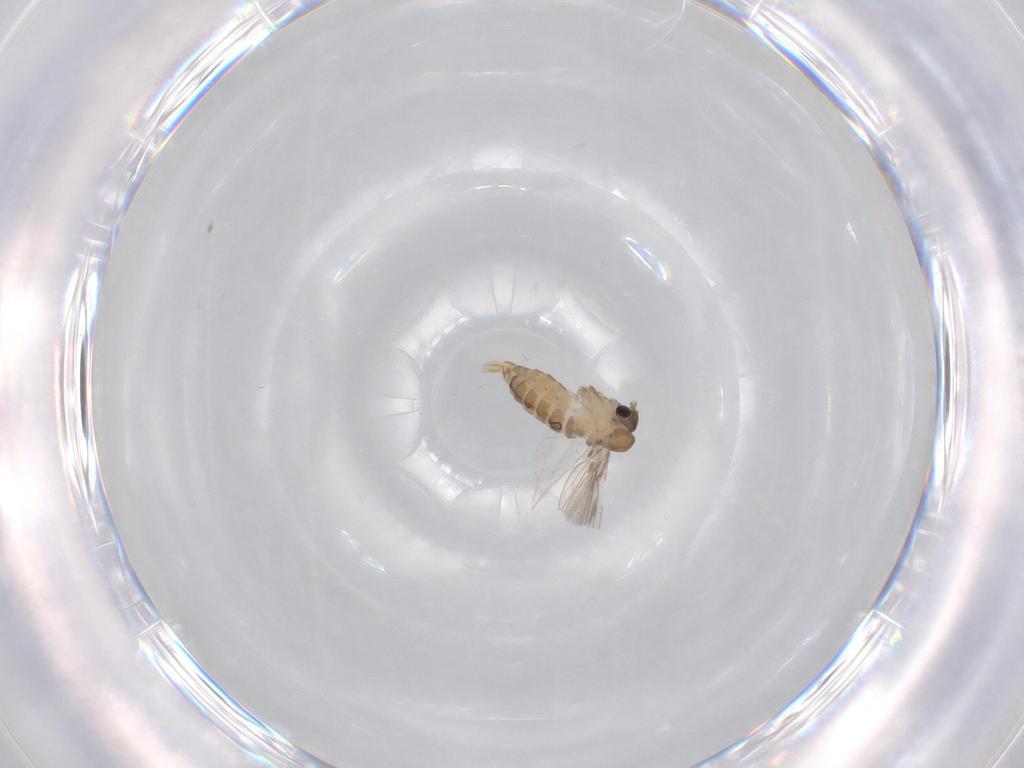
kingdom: Animalia
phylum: Arthropoda
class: Insecta
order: Diptera
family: Psychodidae
